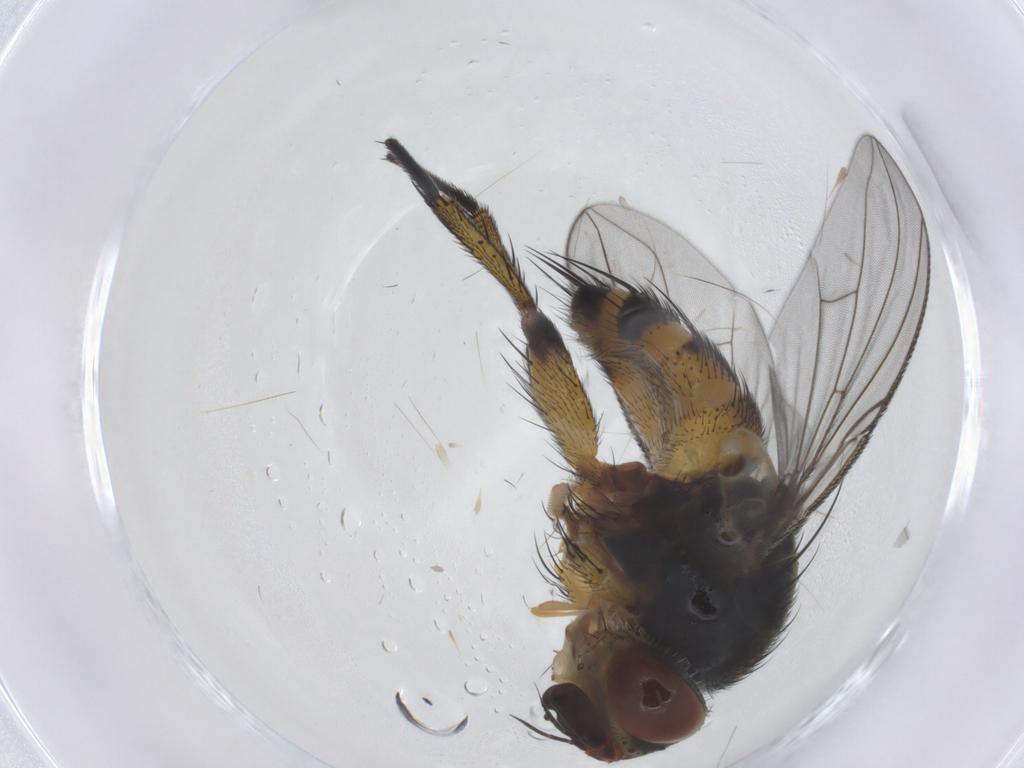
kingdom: Animalia
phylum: Arthropoda
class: Insecta
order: Diptera
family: Tachinidae
